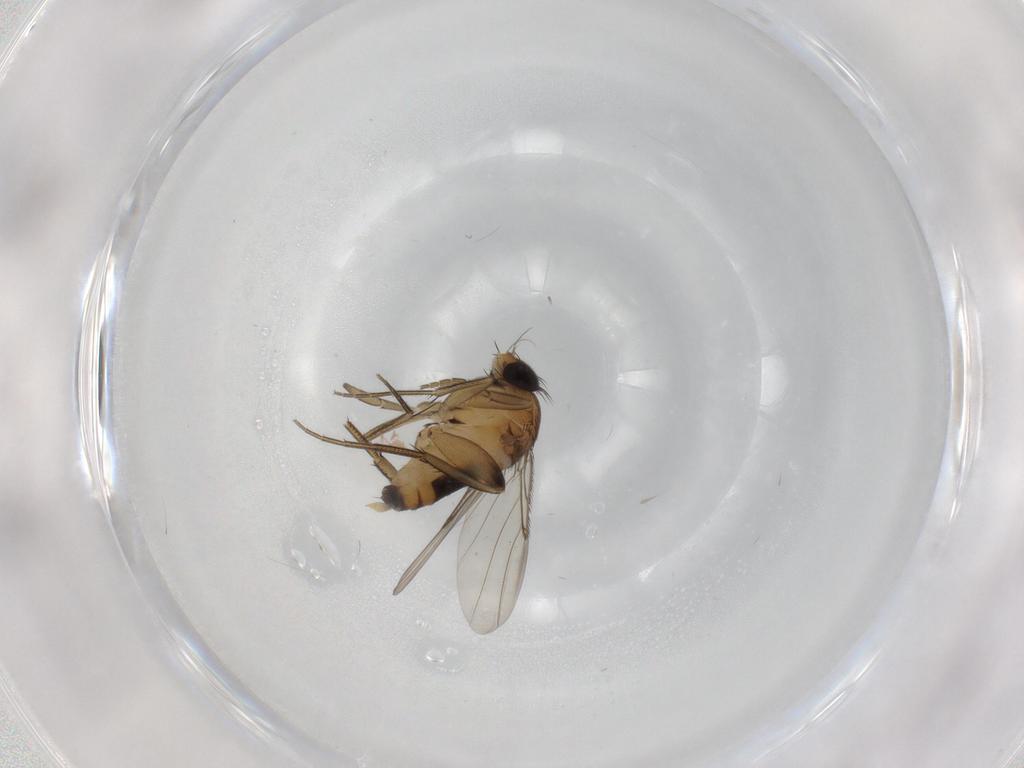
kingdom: Animalia
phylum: Arthropoda
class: Insecta
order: Diptera
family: Phoridae
